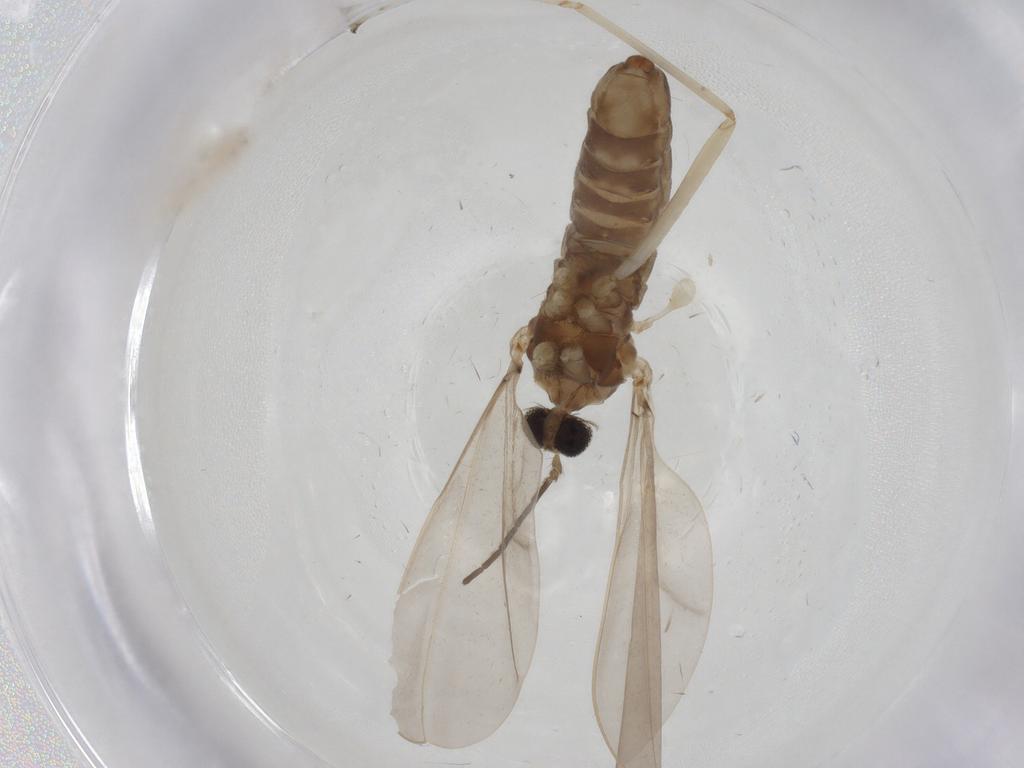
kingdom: Animalia
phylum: Arthropoda
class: Insecta
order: Diptera
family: Cecidomyiidae
